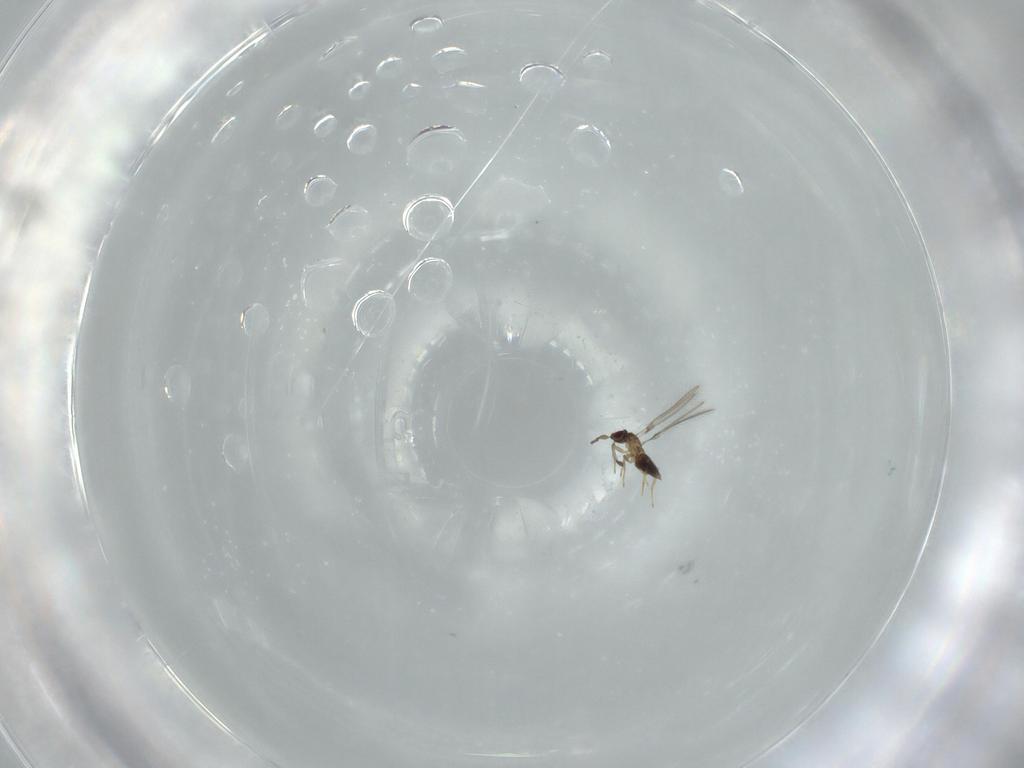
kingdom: Animalia
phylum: Arthropoda
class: Insecta
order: Hymenoptera
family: Mymaridae
